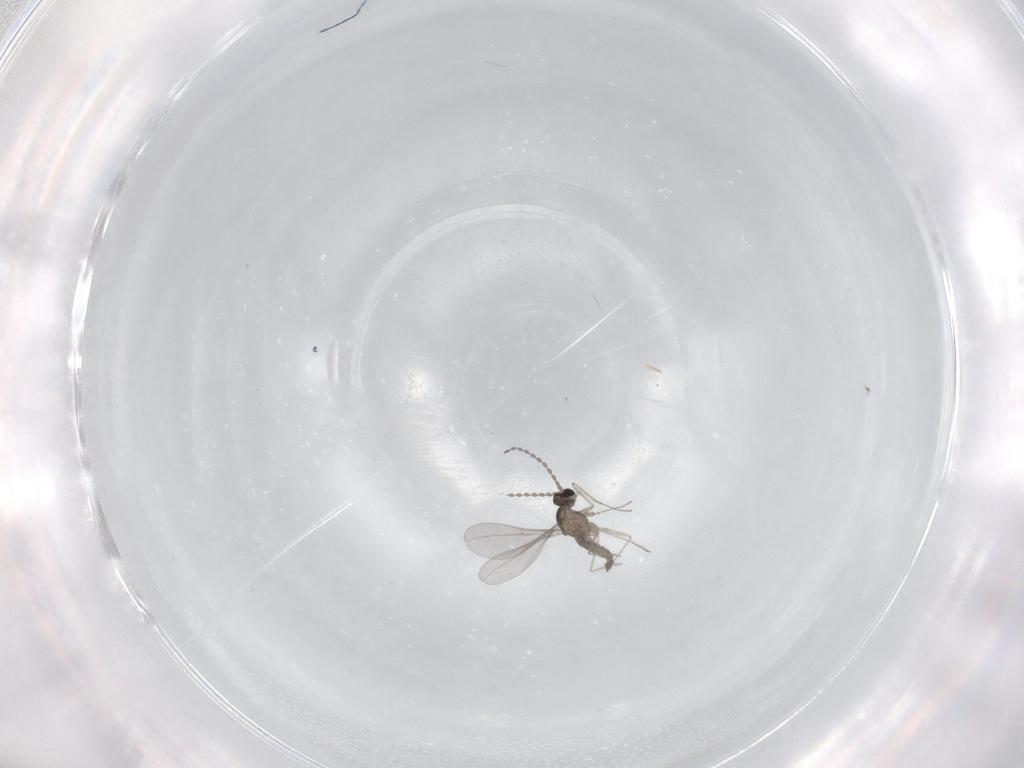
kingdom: Animalia
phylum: Arthropoda
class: Insecta
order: Diptera
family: Cecidomyiidae
